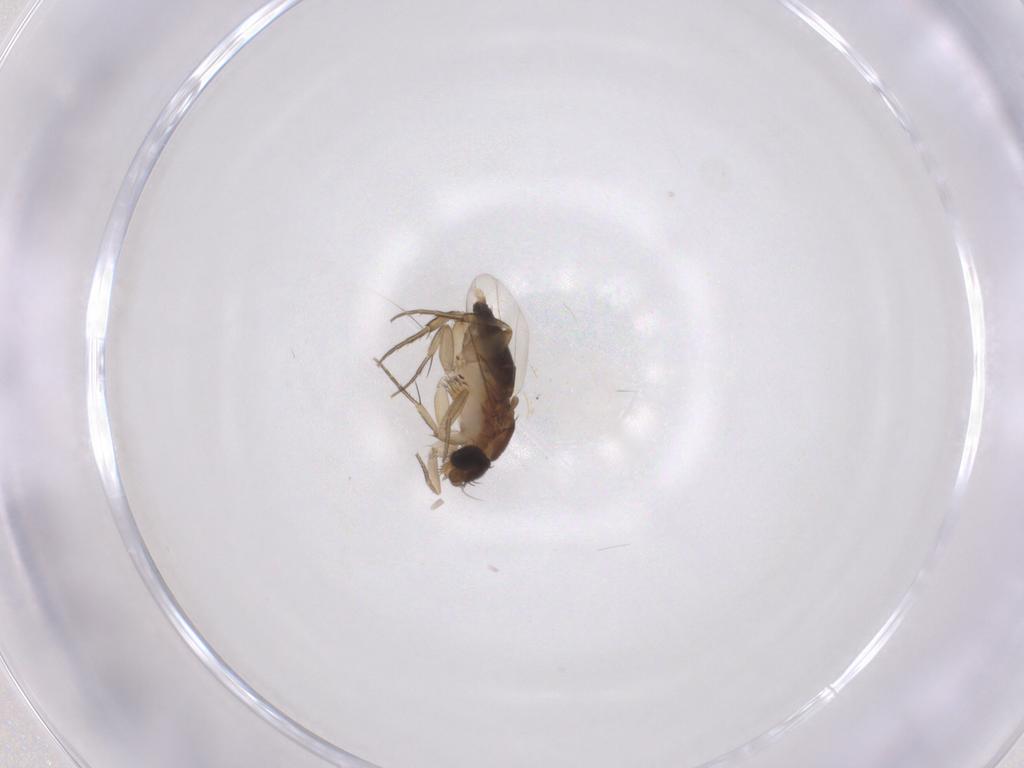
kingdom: Animalia
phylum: Arthropoda
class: Insecta
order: Diptera
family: Phoridae
